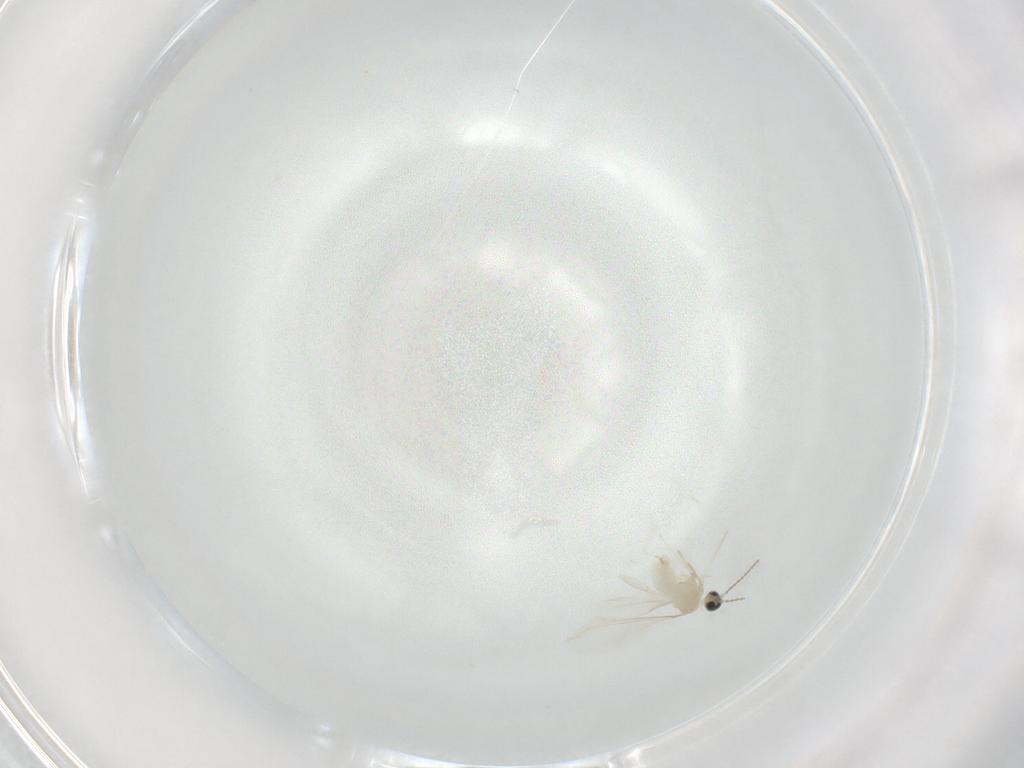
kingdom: Animalia
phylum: Arthropoda
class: Insecta
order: Diptera
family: Cecidomyiidae
